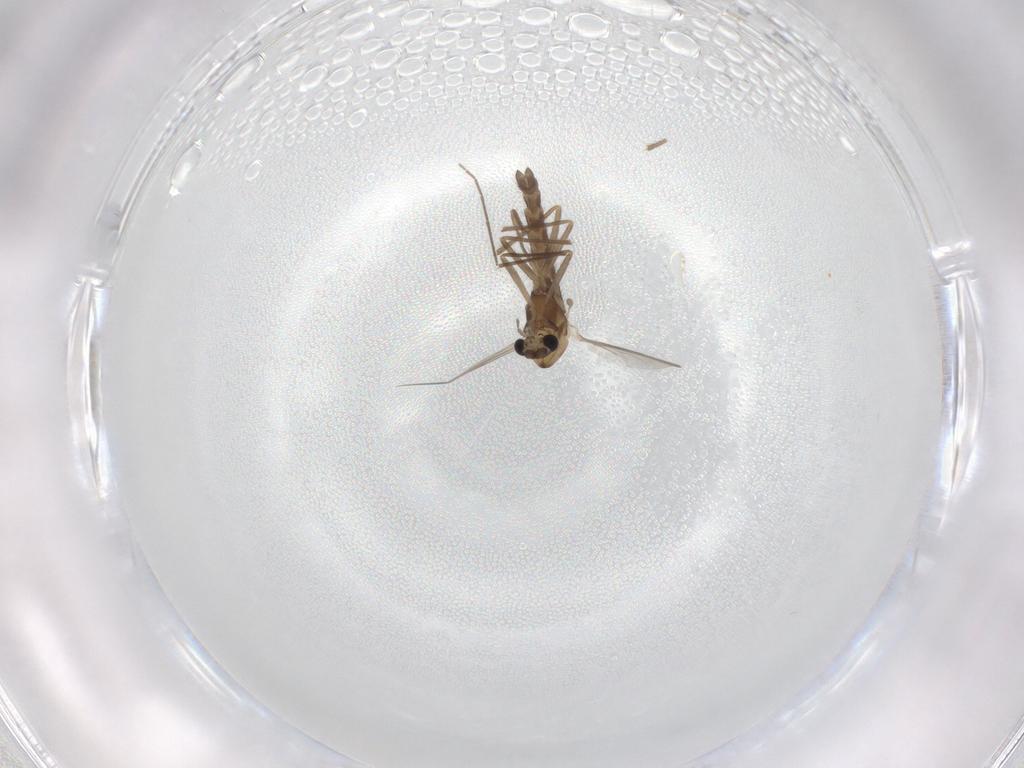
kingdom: Animalia
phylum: Arthropoda
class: Insecta
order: Diptera
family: Chironomidae
